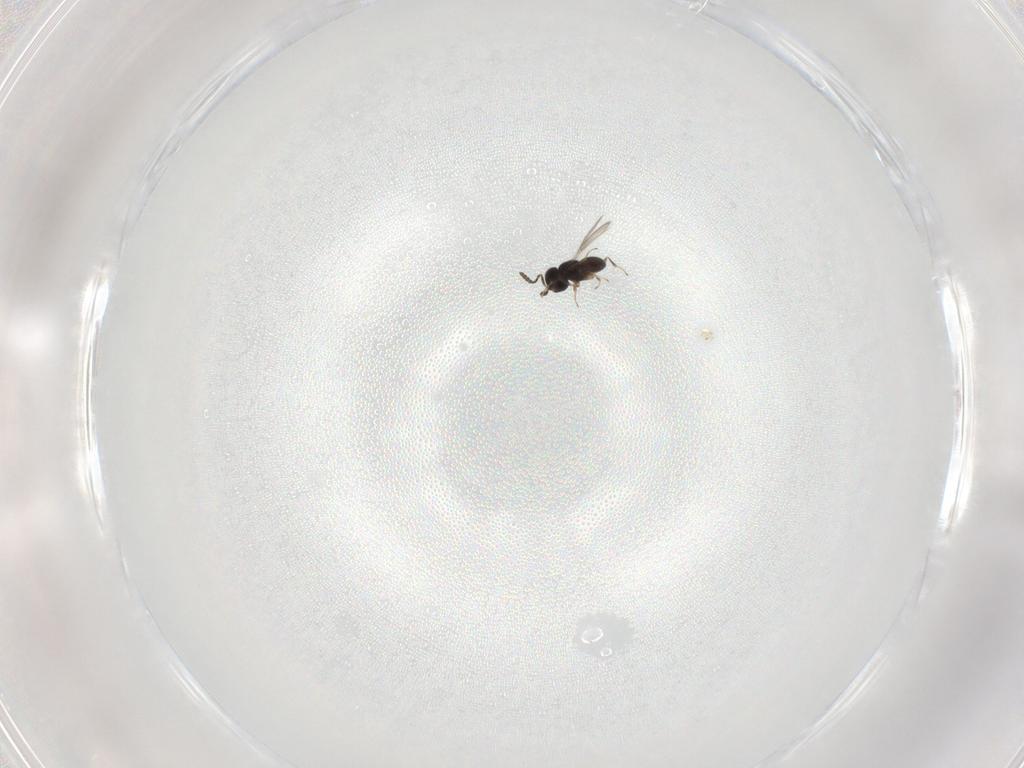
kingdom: Animalia
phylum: Arthropoda
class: Insecta
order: Hymenoptera
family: Scelionidae
